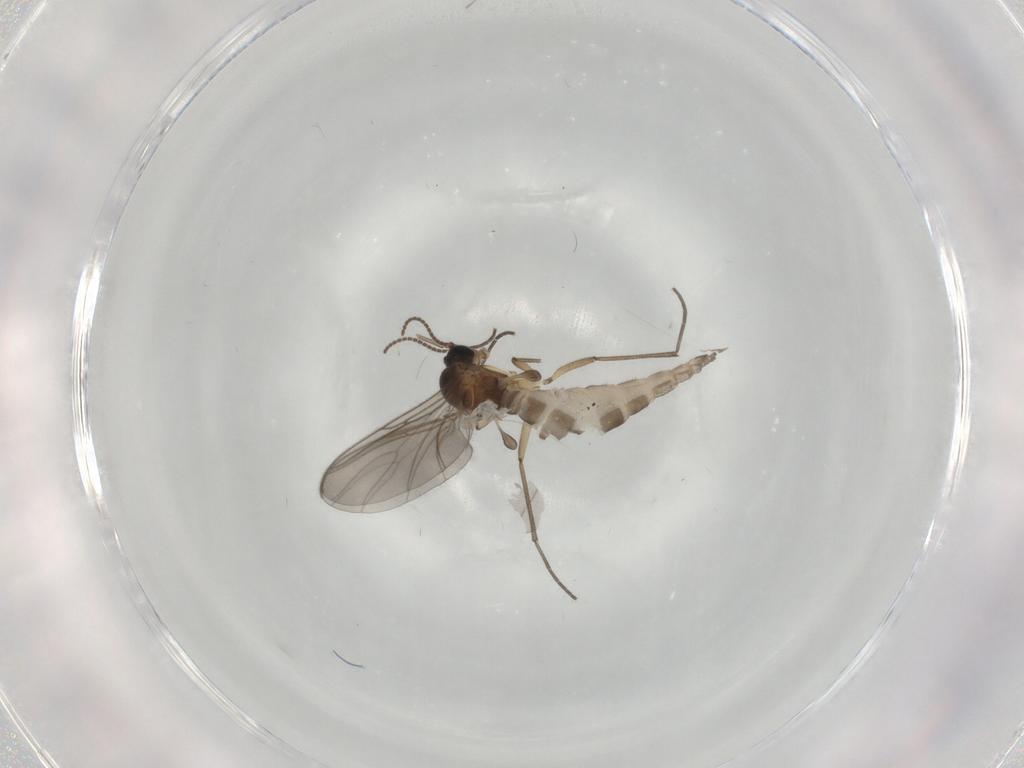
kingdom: Animalia
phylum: Arthropoda
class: Insecta
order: Diptera
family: Sciaridae
